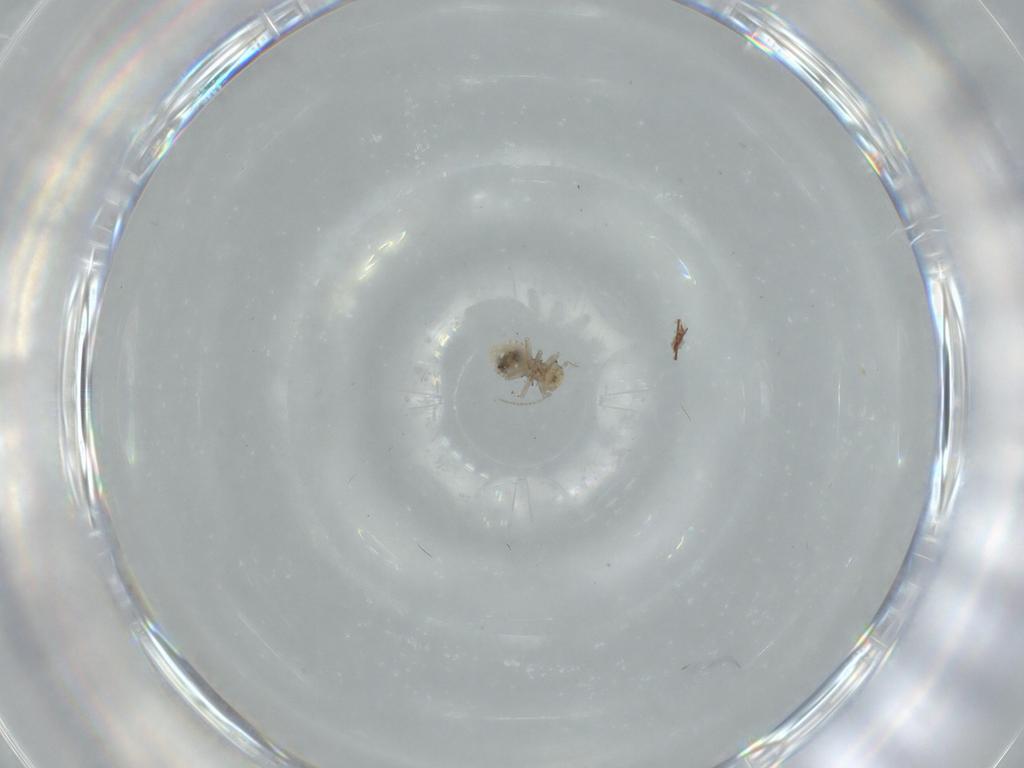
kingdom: Animalia
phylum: Arthropoda
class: Insecta
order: Psocodea
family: Lachesillidae
